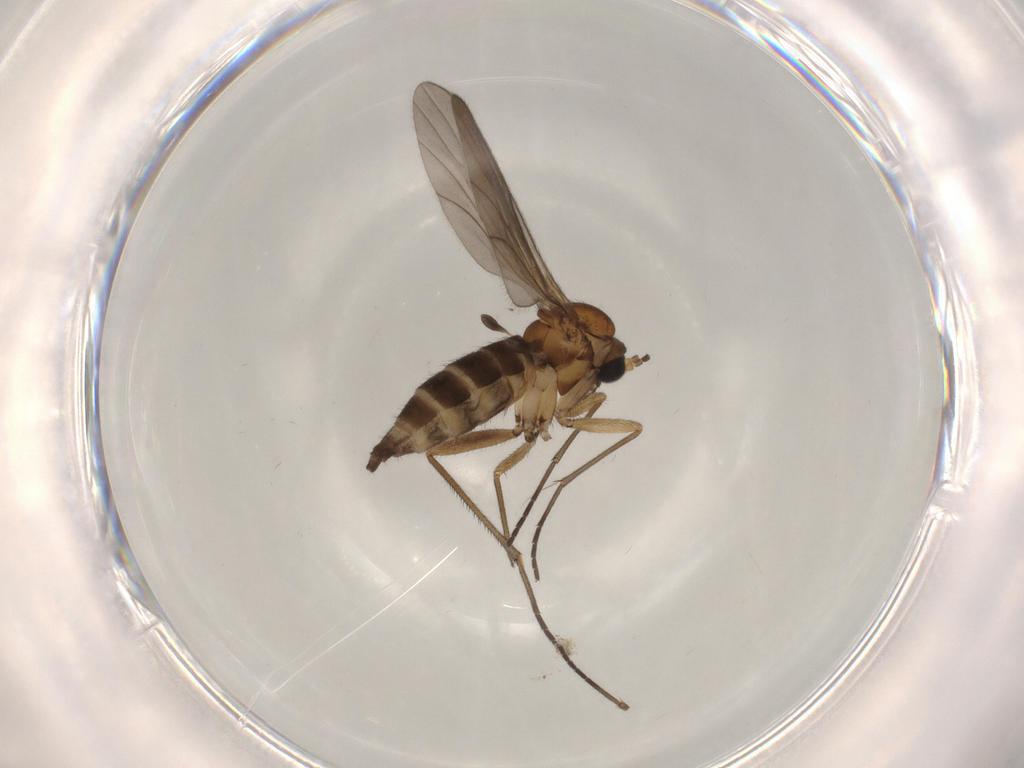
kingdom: Animalia
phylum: Arthropoda
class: Insecta
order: Diptera
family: Sciaridae
